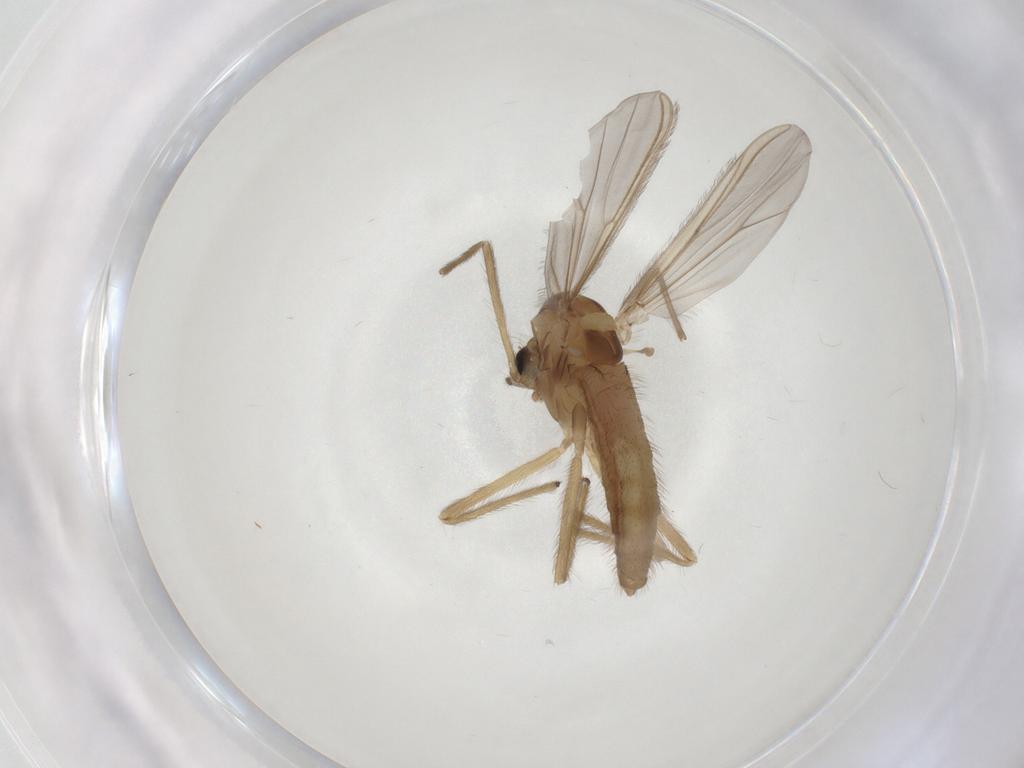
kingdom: Animalia
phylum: Arthropoda
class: Insecta
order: Diptera
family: Chironomidae
